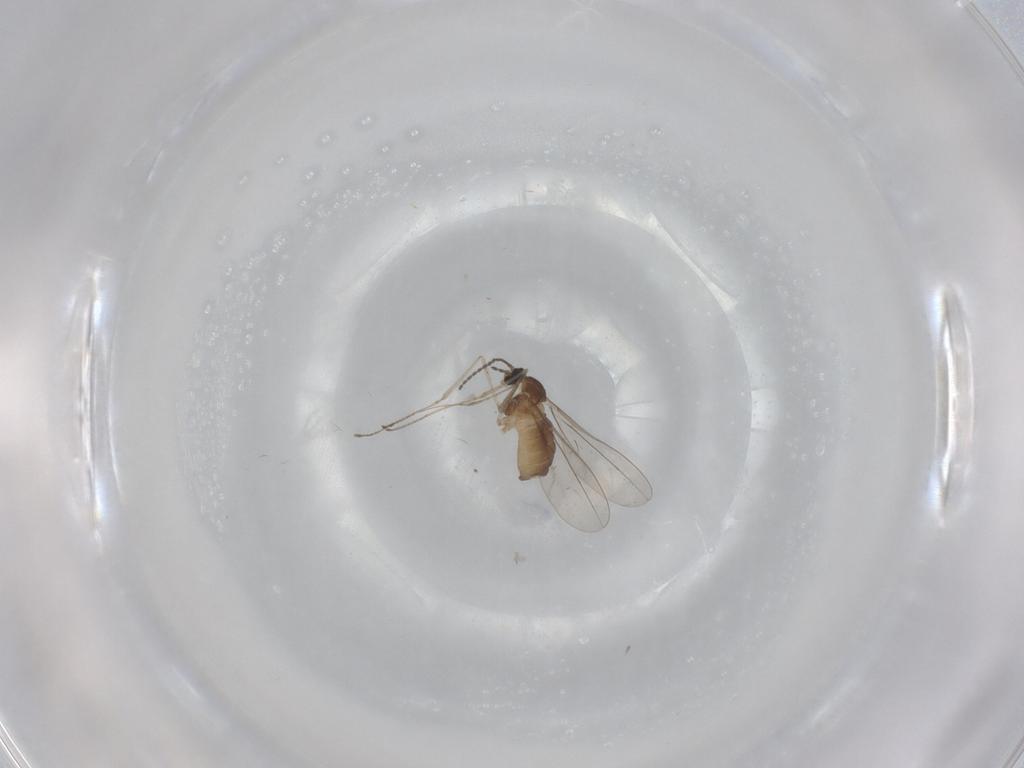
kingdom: Animalia
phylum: Arthropoda
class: Insecta
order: Diptera
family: Cecidomyiidae
